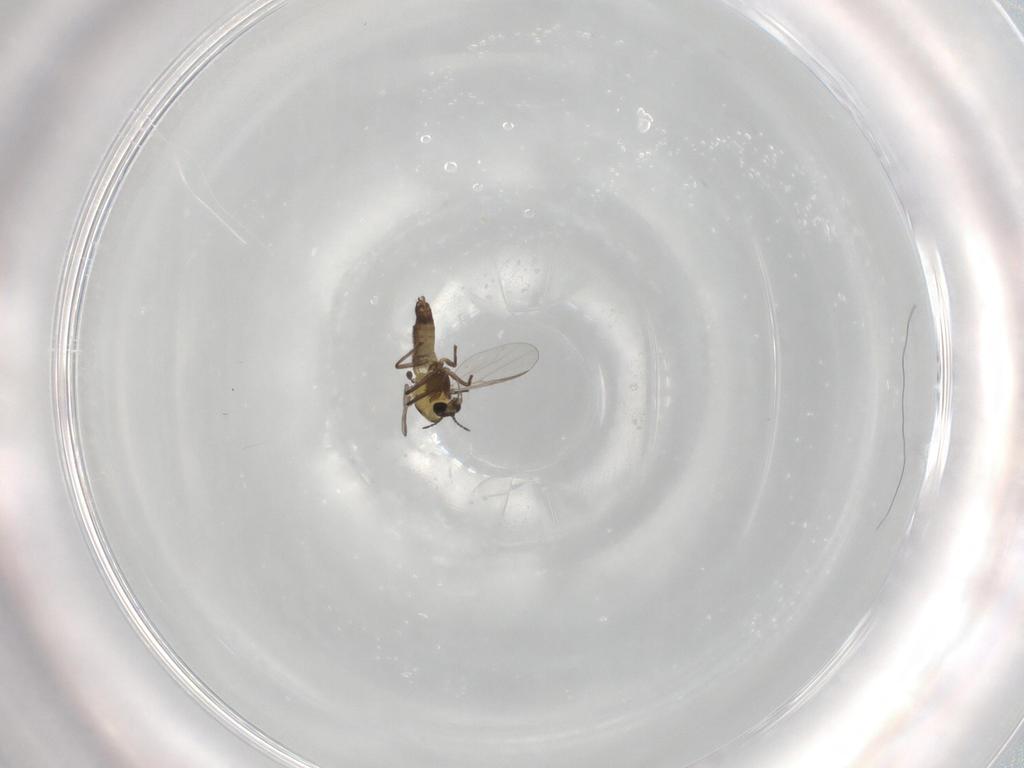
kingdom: Animalia
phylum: Arthropoda
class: Insecta
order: Diptera
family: Chironomidae
